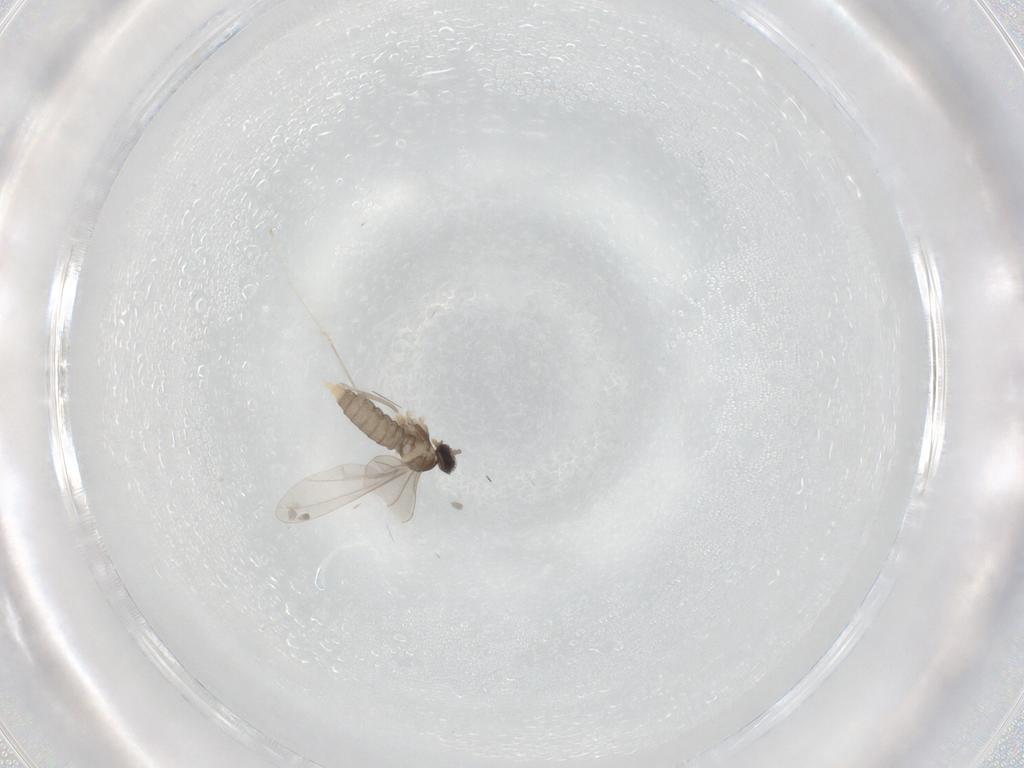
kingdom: Animalia
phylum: Arthropoda
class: Insecta
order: Diptera
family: Cecidomyiidae
